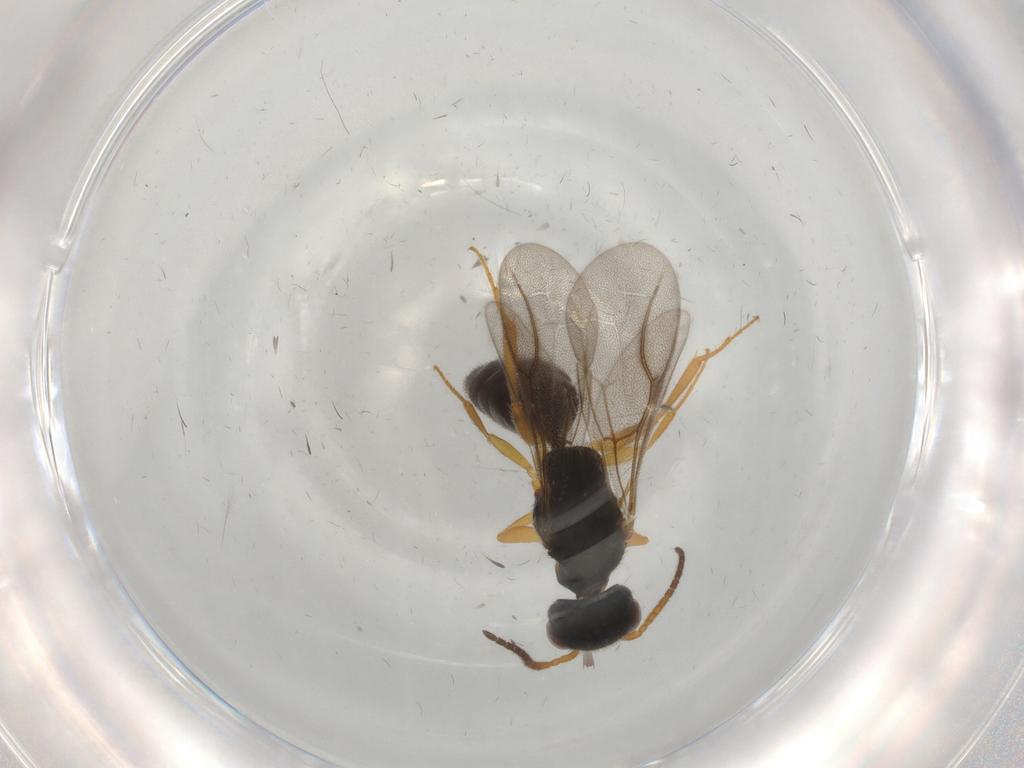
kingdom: Animalia
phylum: Arthropoda
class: Insecta
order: Hymenoptera
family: Bethylidae
